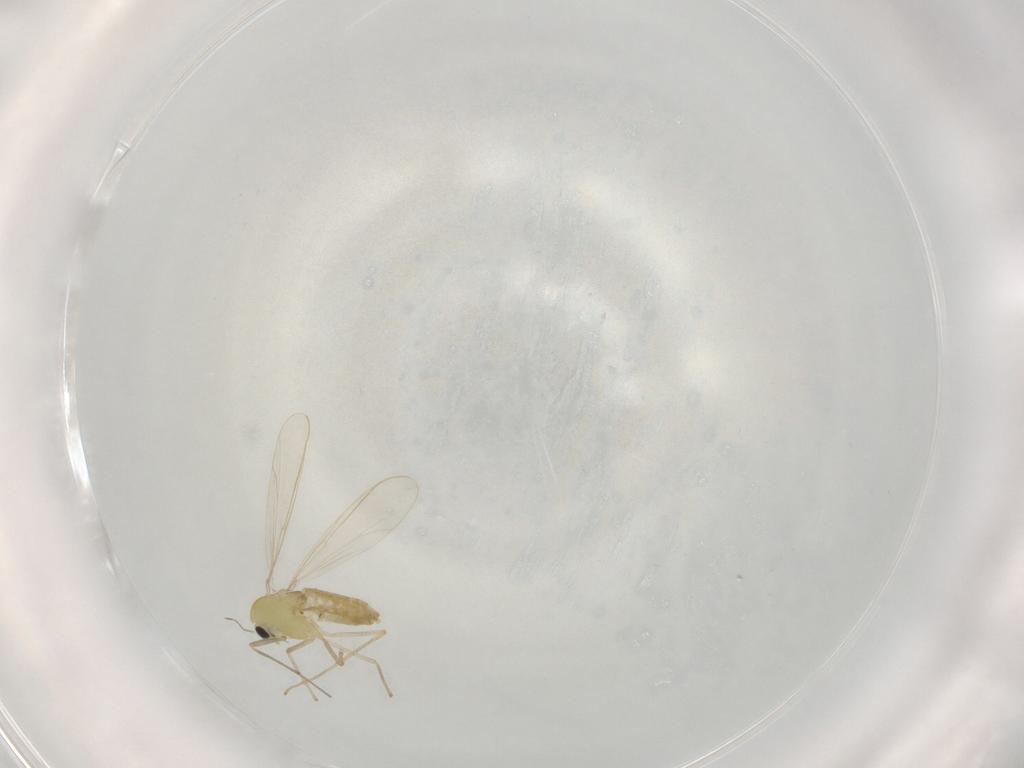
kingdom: Animalia
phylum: Arthropoda
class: Insecta
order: Diptera
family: Chironomidae
